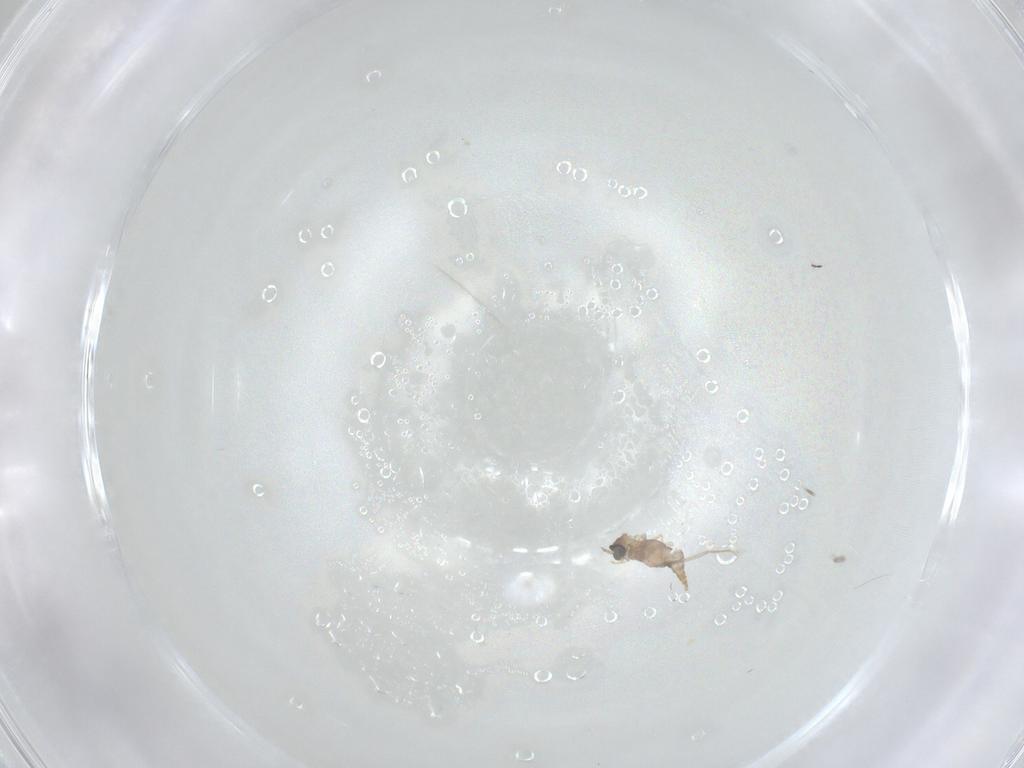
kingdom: Animalia
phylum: Arthropoda
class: Insecta
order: Diptera
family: Cecidomyiidae
